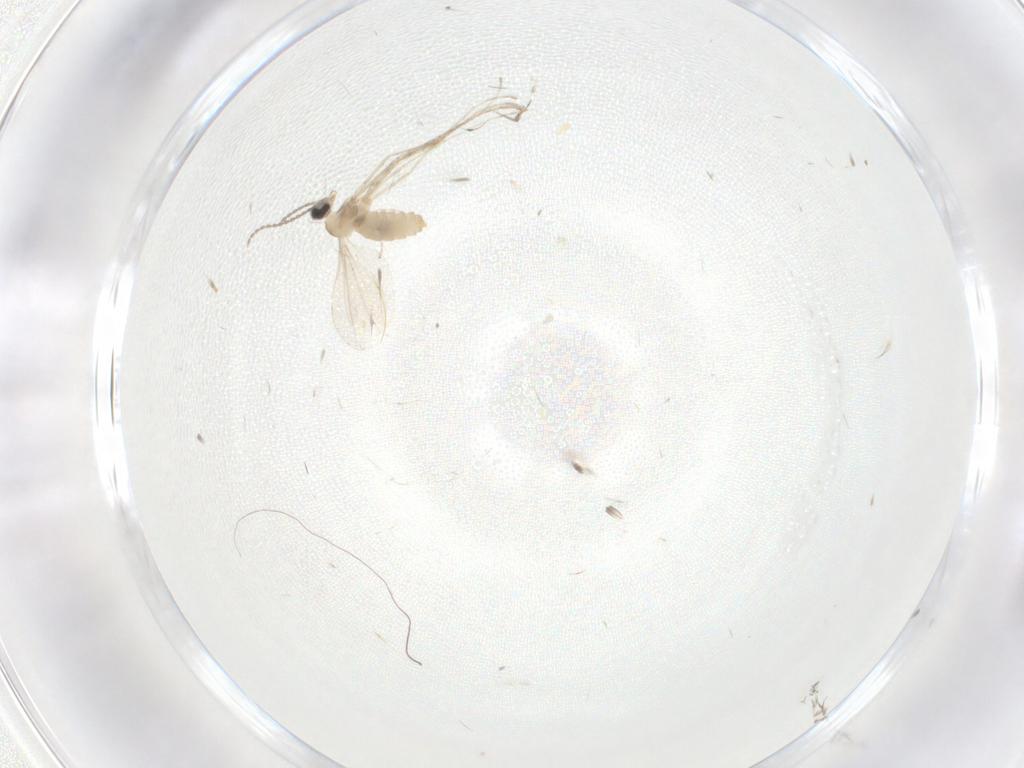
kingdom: Animalia
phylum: Arthropoda
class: Insecta
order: Diptera
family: Cecidomyiidae
